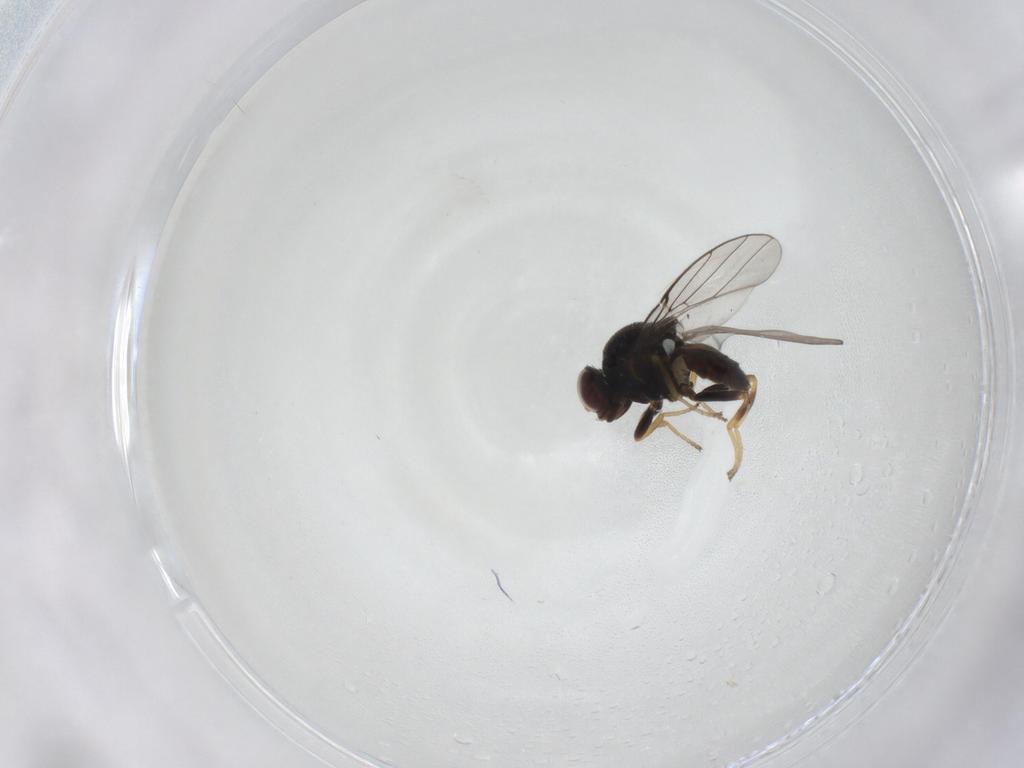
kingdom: Animalia
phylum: Arthropoda
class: Insecta
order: Diptera
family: Chloropidae
